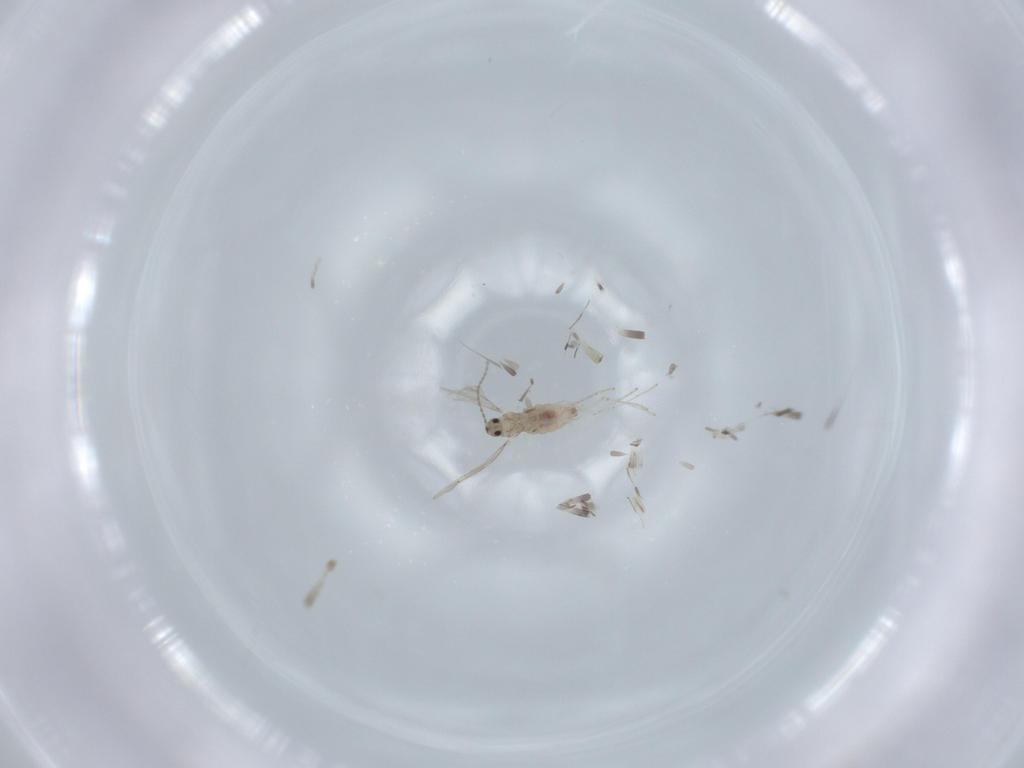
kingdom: Animalia
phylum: Arthropoda
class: Insecta
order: Diptera
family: Cecidomyiidae
